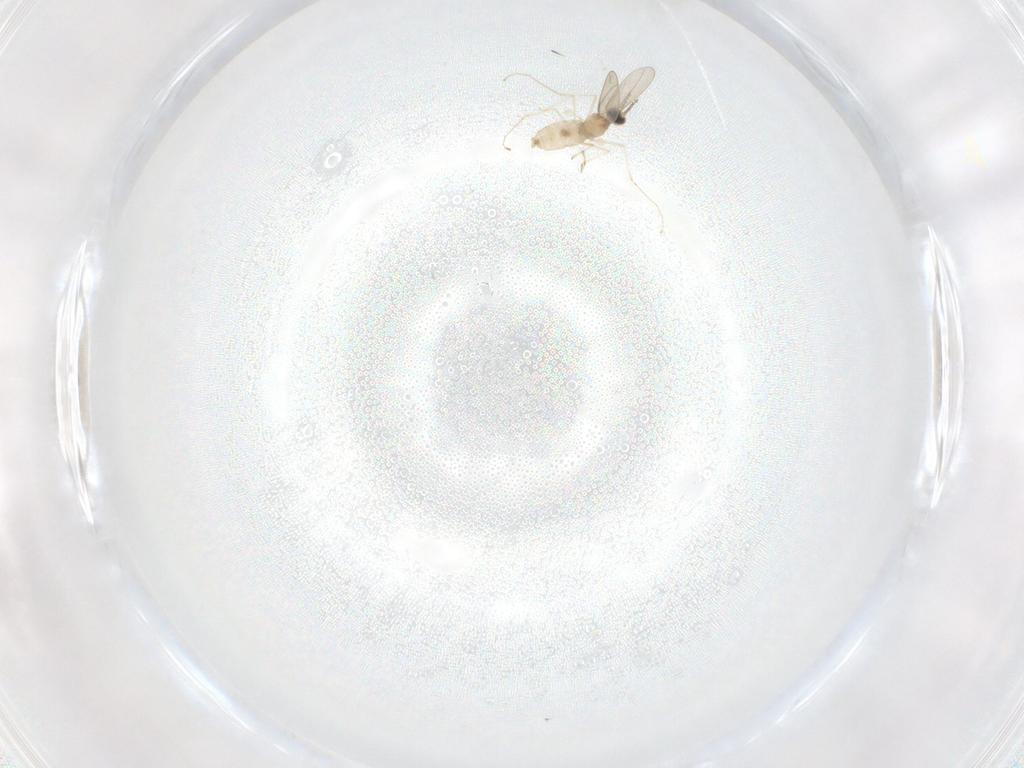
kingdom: Animalia
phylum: Arthropoda
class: Insecta
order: Diptera
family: Cecidomyiidae
